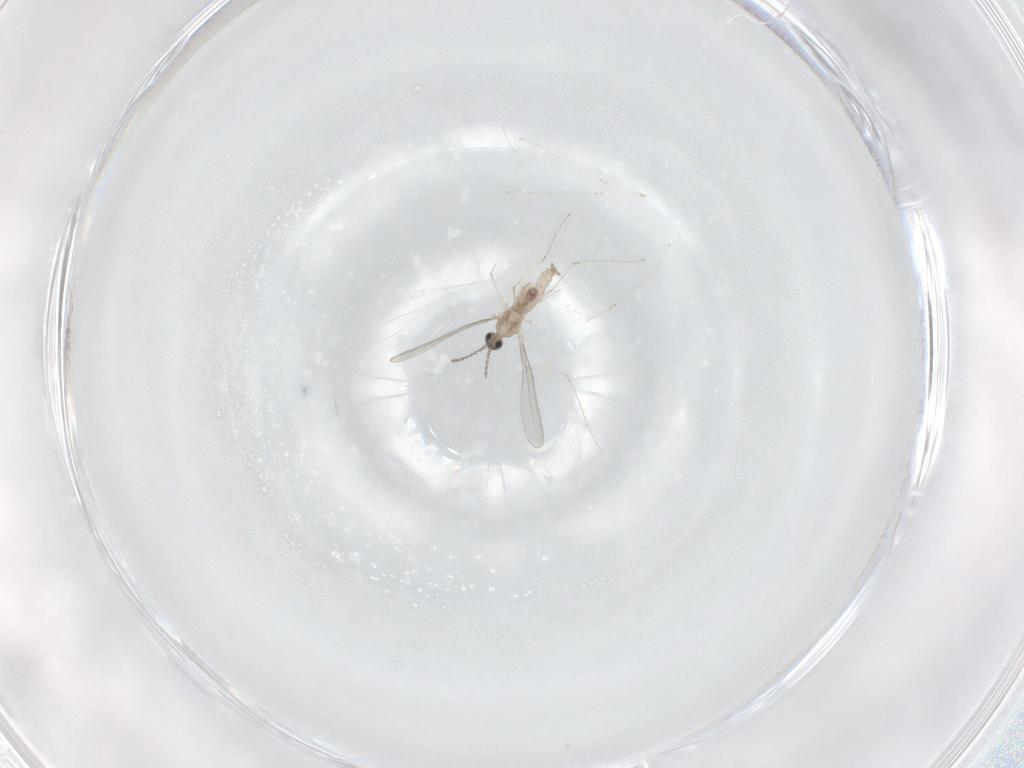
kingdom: Animalia
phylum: Arthropoda
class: Insecta
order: Diptera
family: Cecidomyiidae
